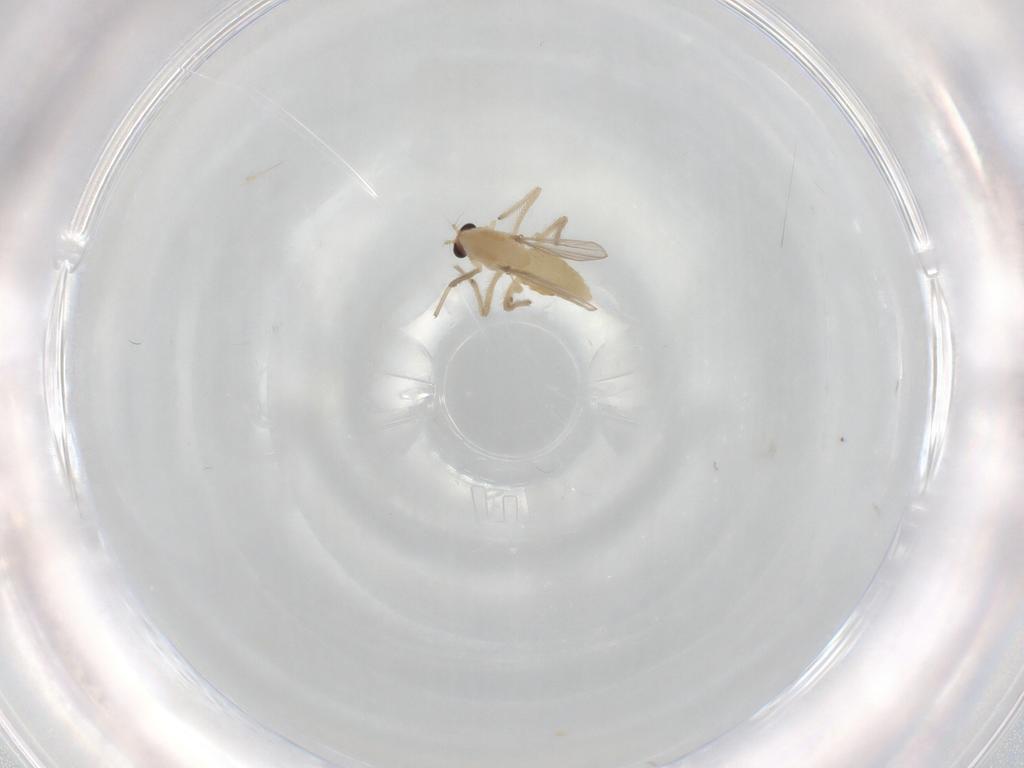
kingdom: Animalia
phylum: Arthropoda
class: Insecta
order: Diptera
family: Chironomidae
